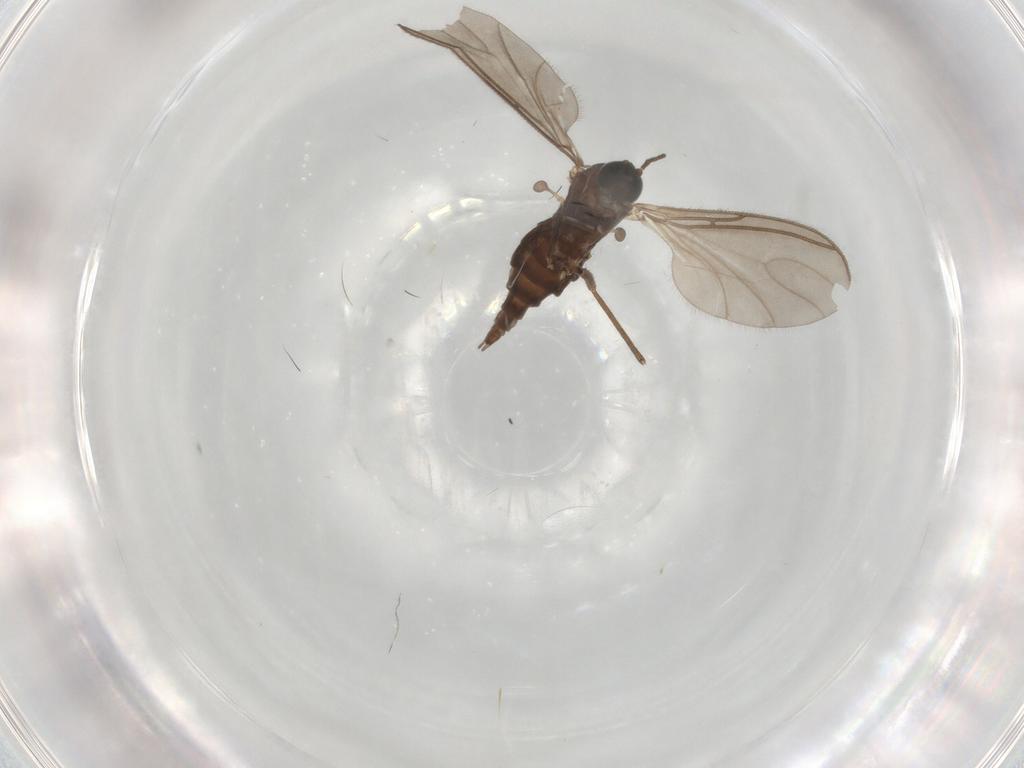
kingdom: Animalia
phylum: Arthropoda
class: Insecta
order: Diptera
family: Sciaridae
